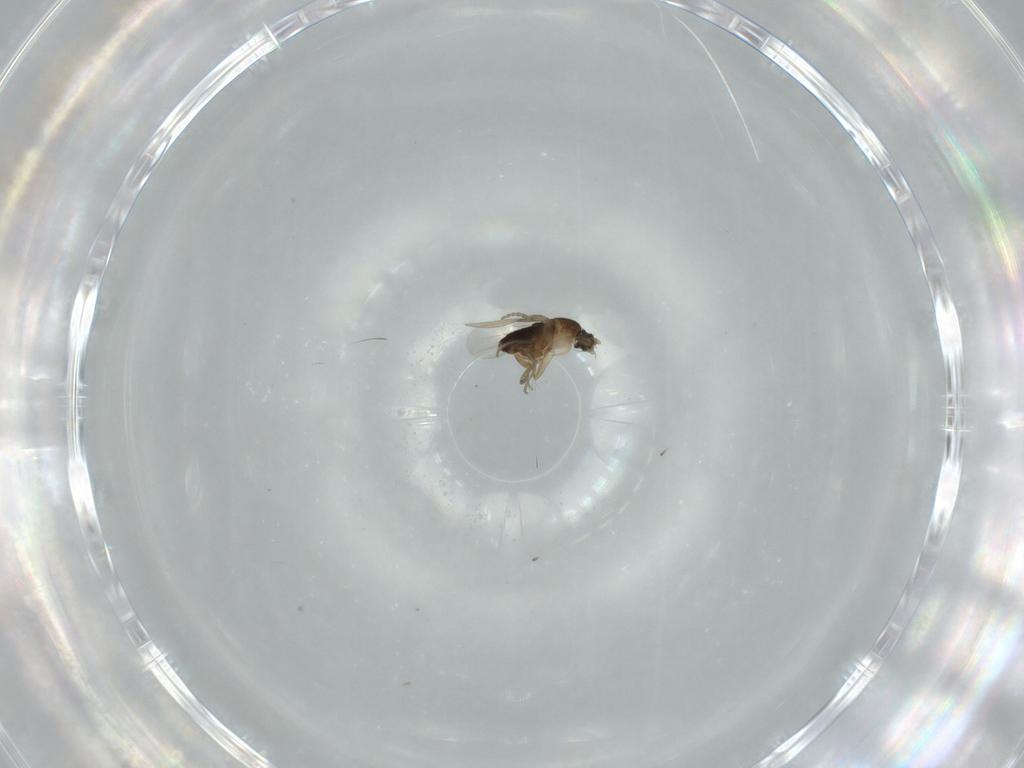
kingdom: Animalia
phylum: Arthropoda
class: Insecta
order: Diptera
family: Phoridae
